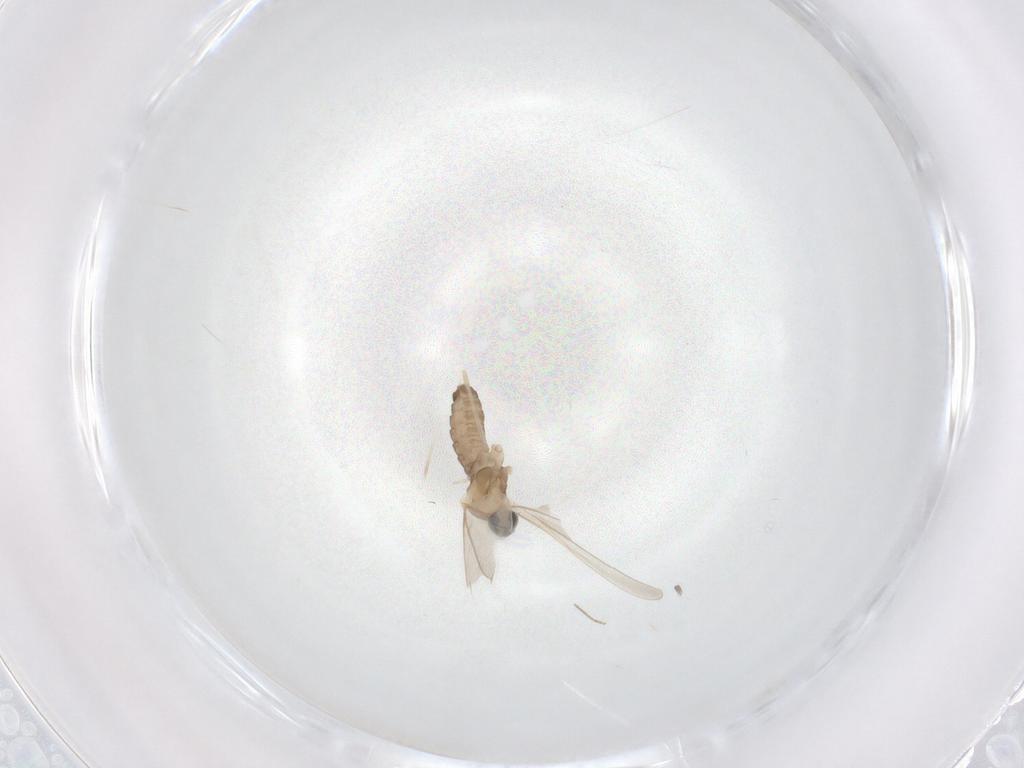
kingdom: Animalia
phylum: Arthropoda
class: Insecta
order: Diptera
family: Cecidomyiidae
